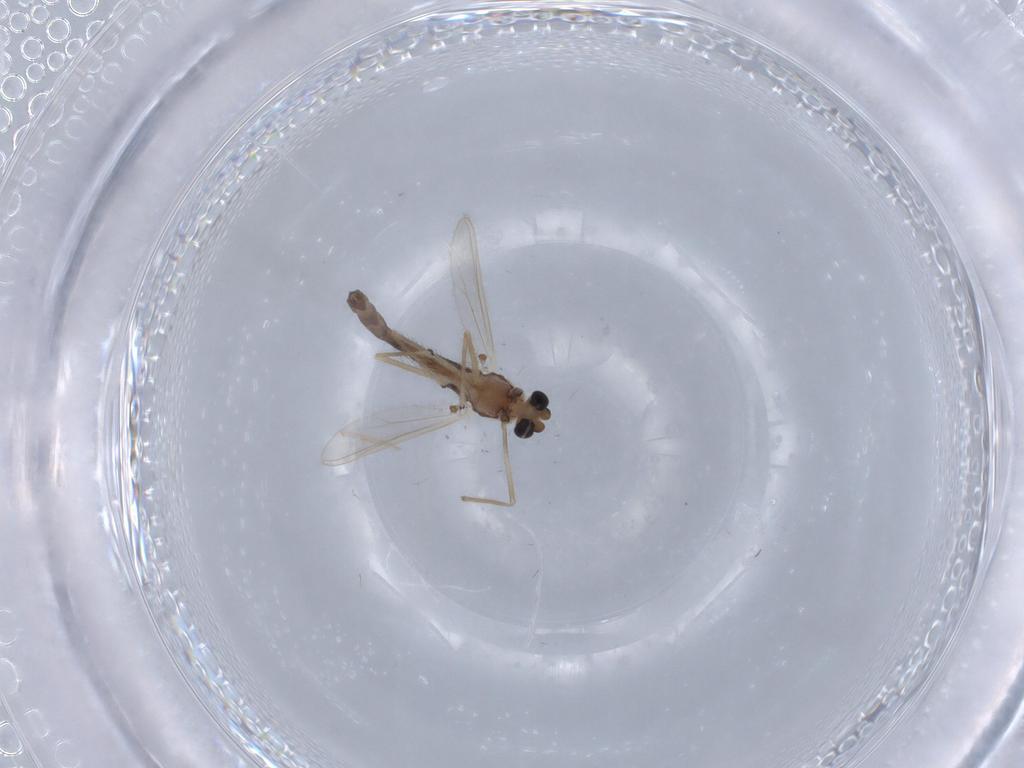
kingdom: Animalia
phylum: Arthropoda
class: Insecta
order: Diptera
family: Chironomidae
